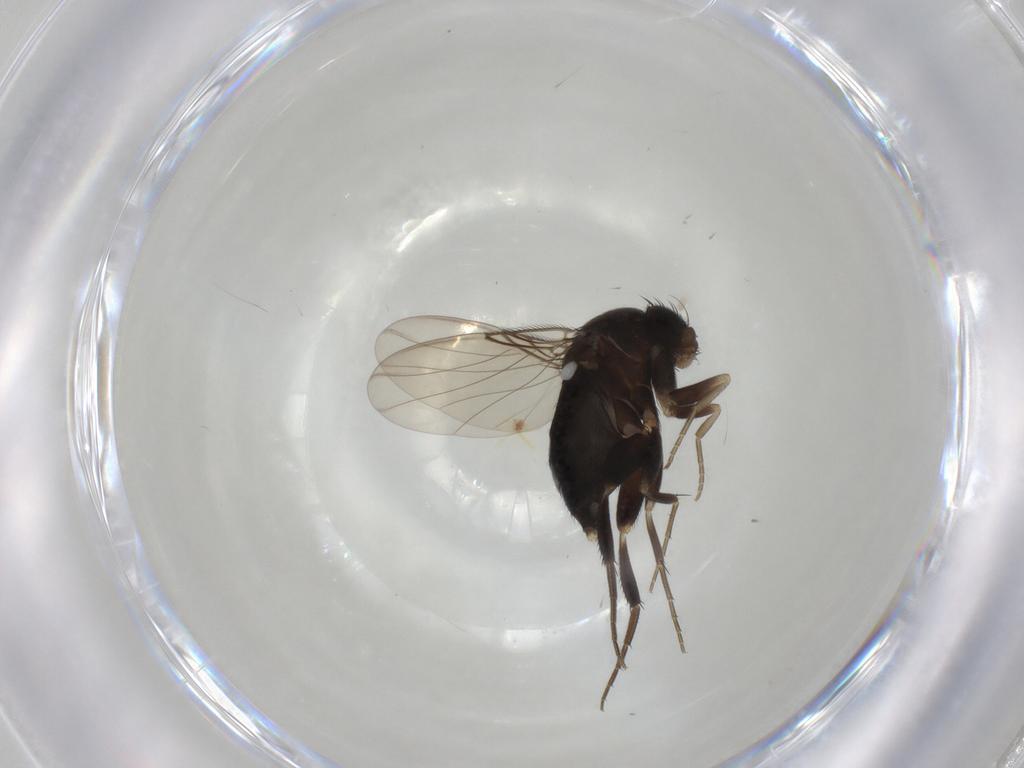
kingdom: Animalia
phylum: Arthropoda
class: Insecta
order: Diptera
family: Phoridae
